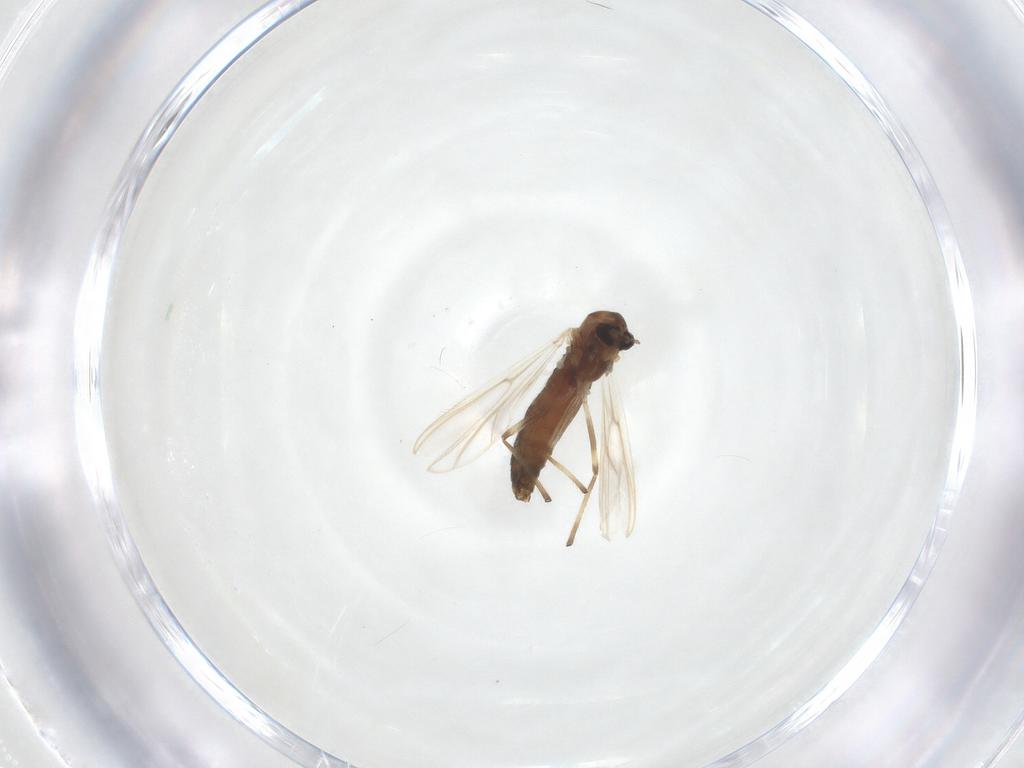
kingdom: Animalia
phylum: Arthropoda
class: Insecta
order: Diptera
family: Chironomidae
